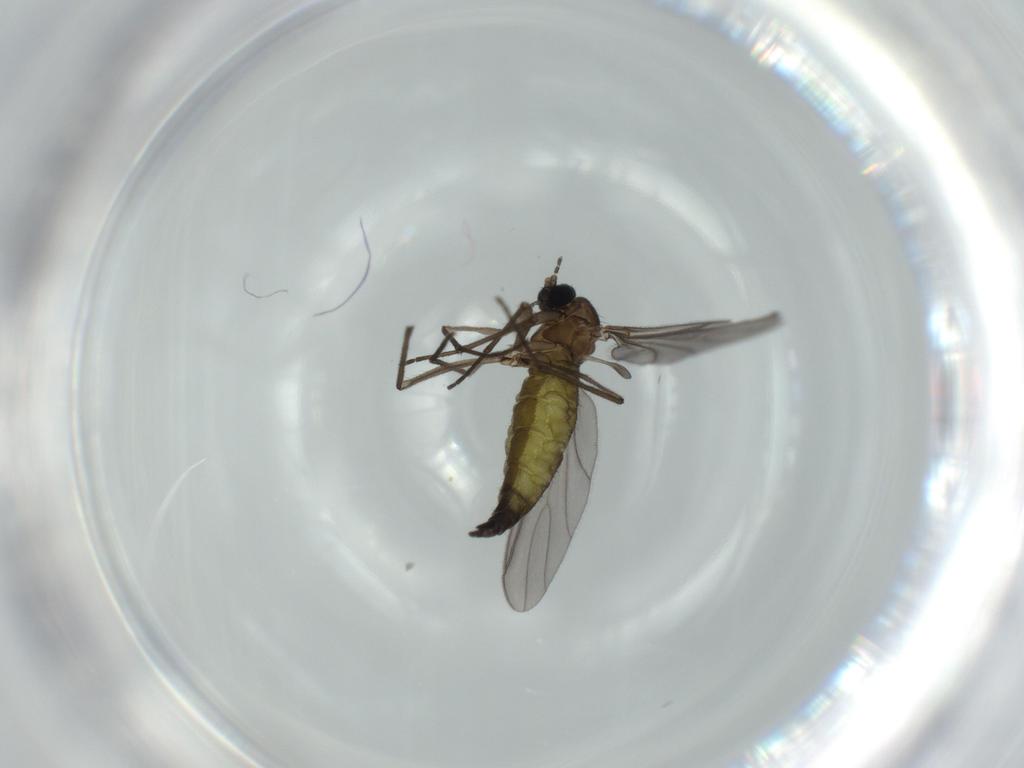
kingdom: Animalia
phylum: Arthropoda
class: Insecta
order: Diptera
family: Sciaridae
